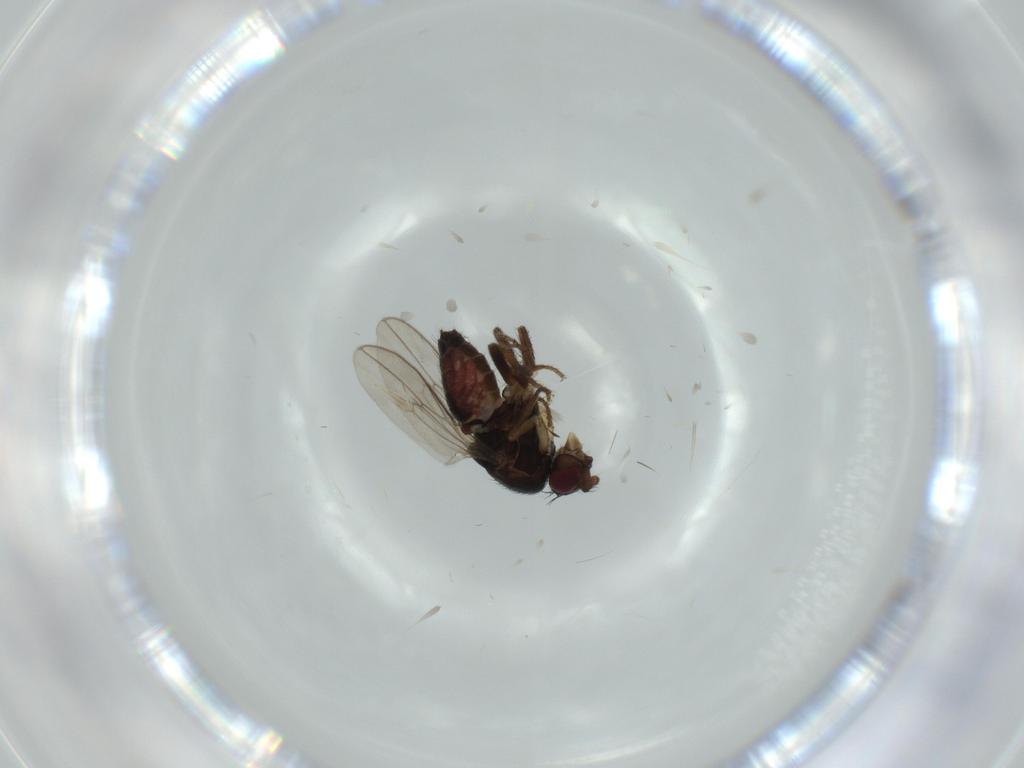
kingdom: Animalia
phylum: Arthropoda
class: Insecta
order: Diptera
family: Sphaeroceridae
